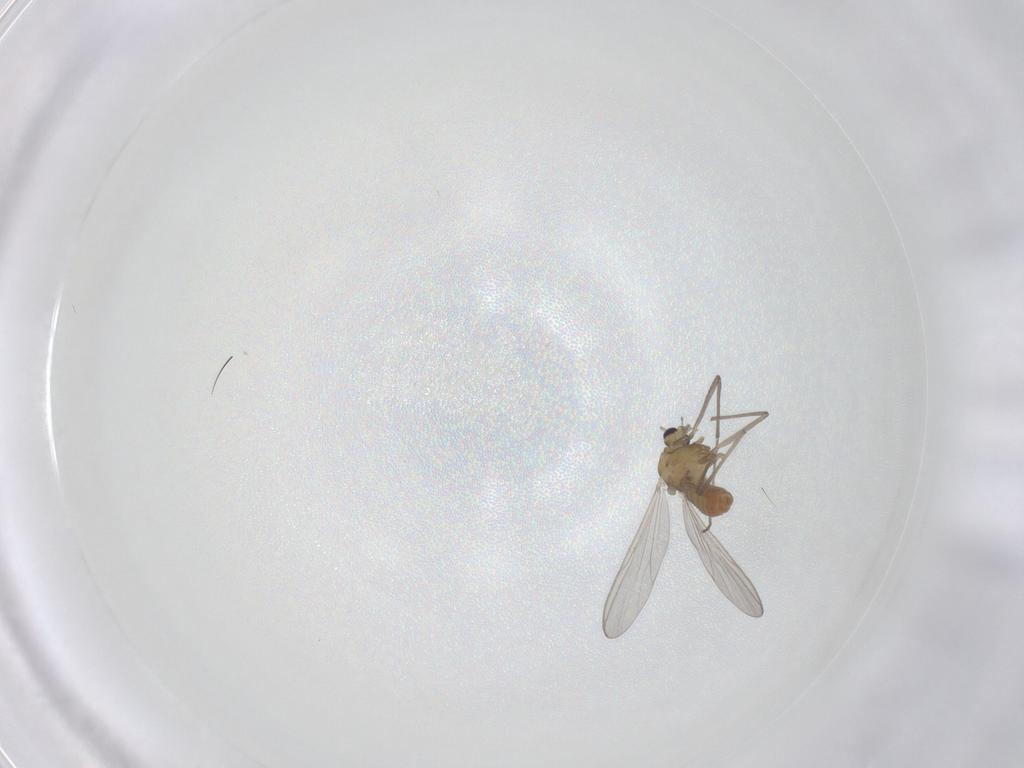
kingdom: Animalia
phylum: Arthropoda
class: Insecta
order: Diptera
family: Chironomidae
